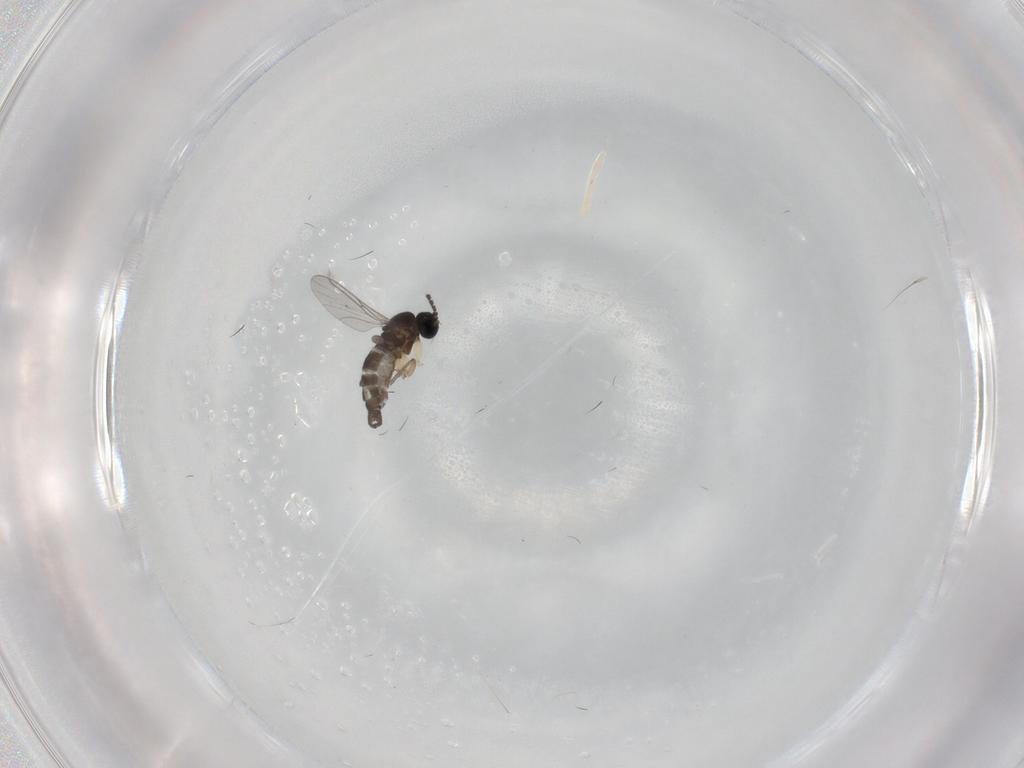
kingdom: Animalia
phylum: Arthropoda
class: Insecta
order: Diptera
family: Sciaridae
